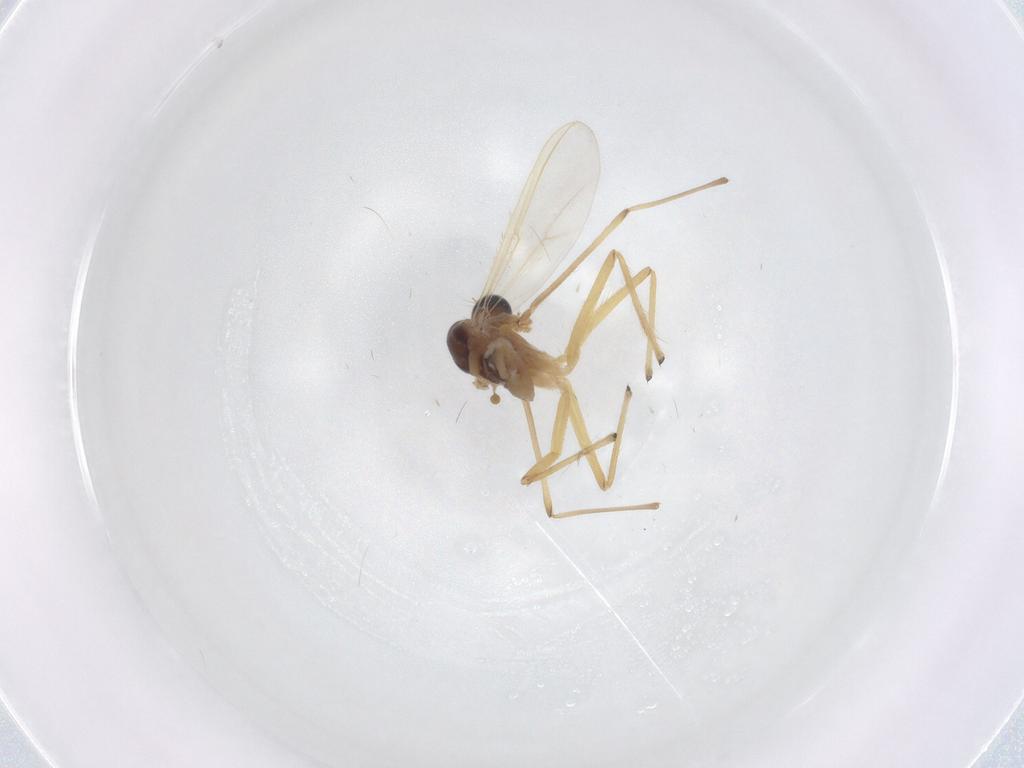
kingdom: Animalia
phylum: Arthropoda
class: Insecta
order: Diptera
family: Chironomidae
